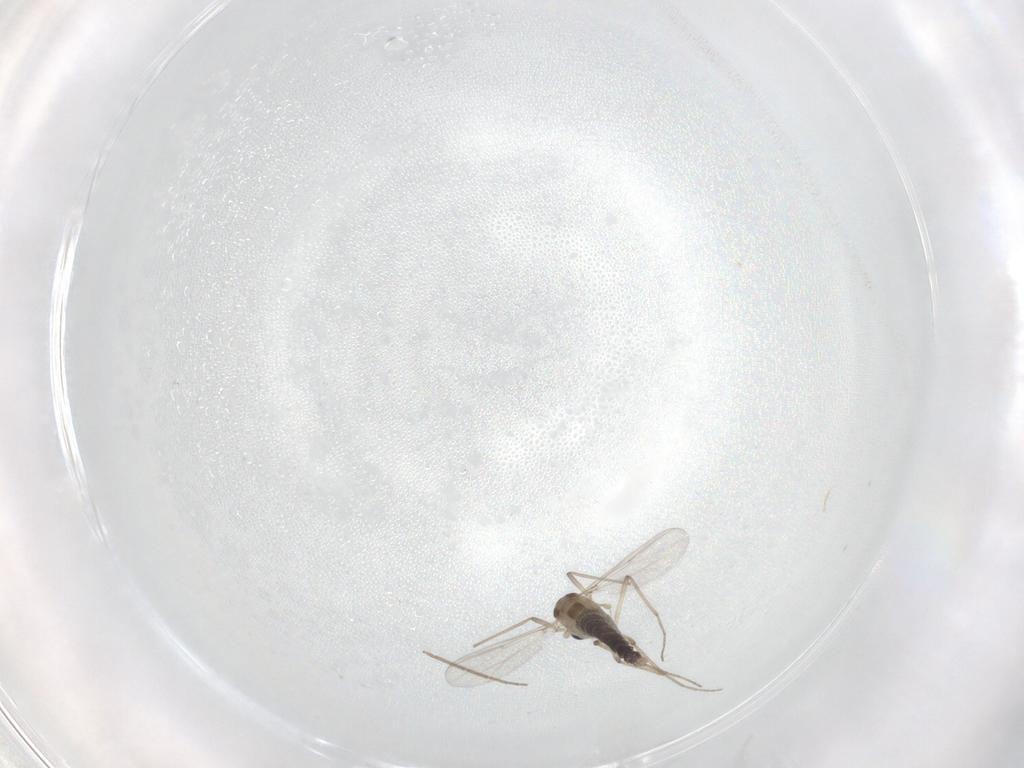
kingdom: Animalia
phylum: Arthropoda
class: Insecta
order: Diptera
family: Chironomidae
